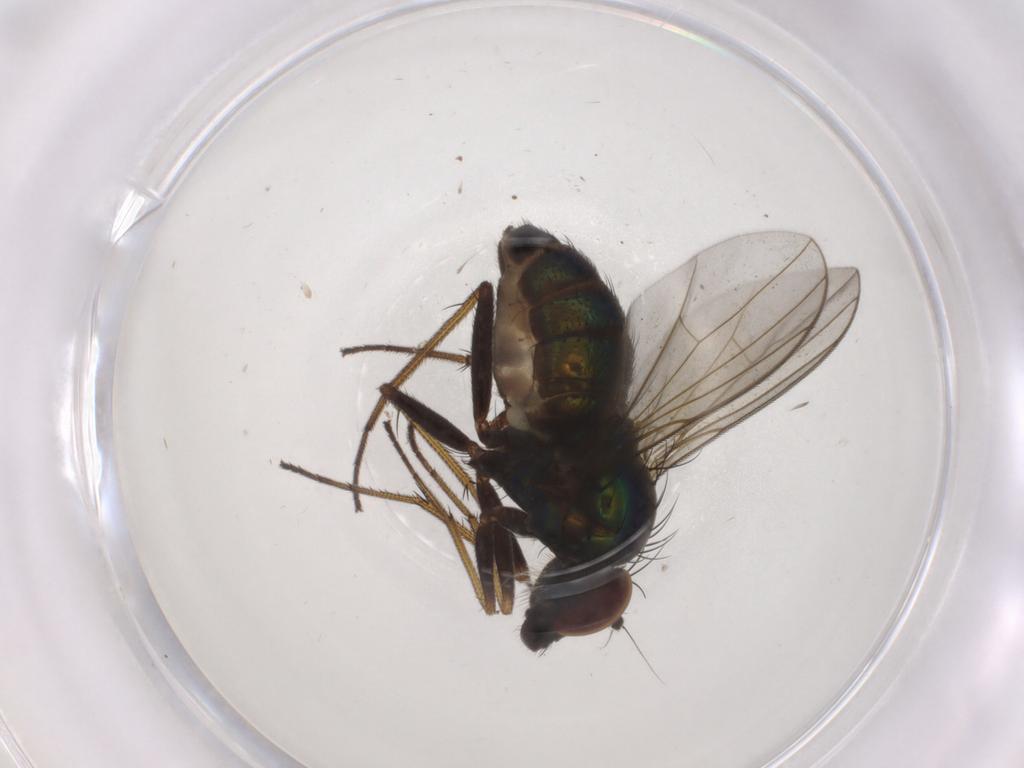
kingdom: Animalia
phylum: Arthropoda
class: Insecta
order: Diptera
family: Dolichopodidae
